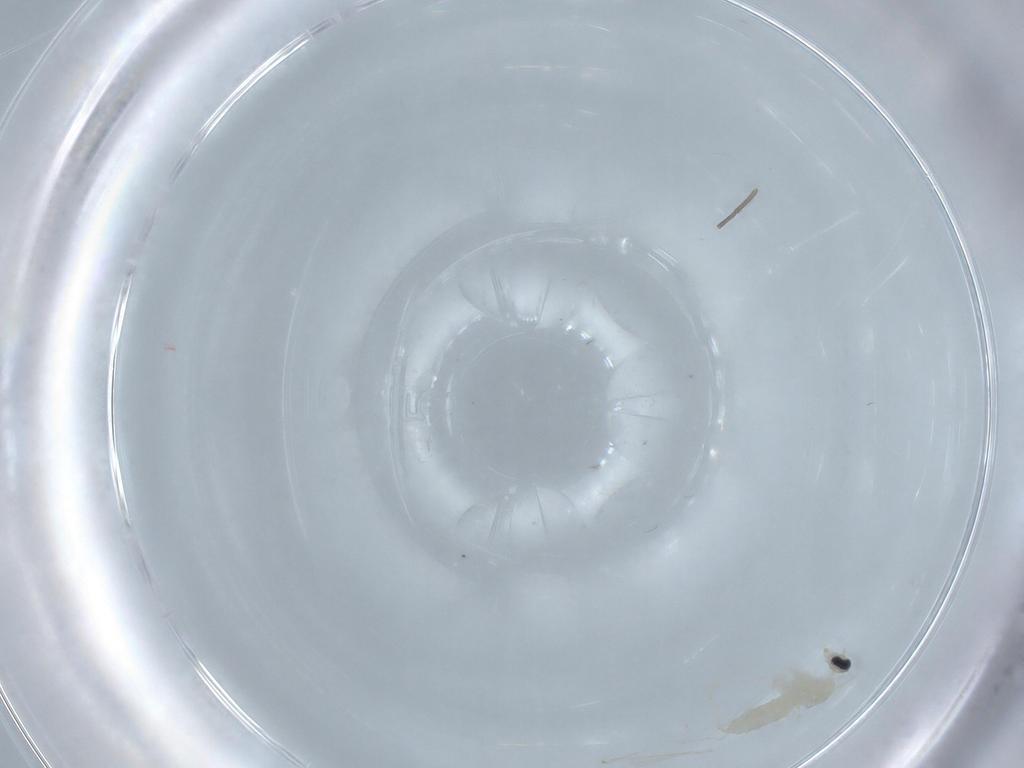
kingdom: Animalia
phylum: Arthropoda
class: Insecta
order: Diptera
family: Cecidomyiidae
